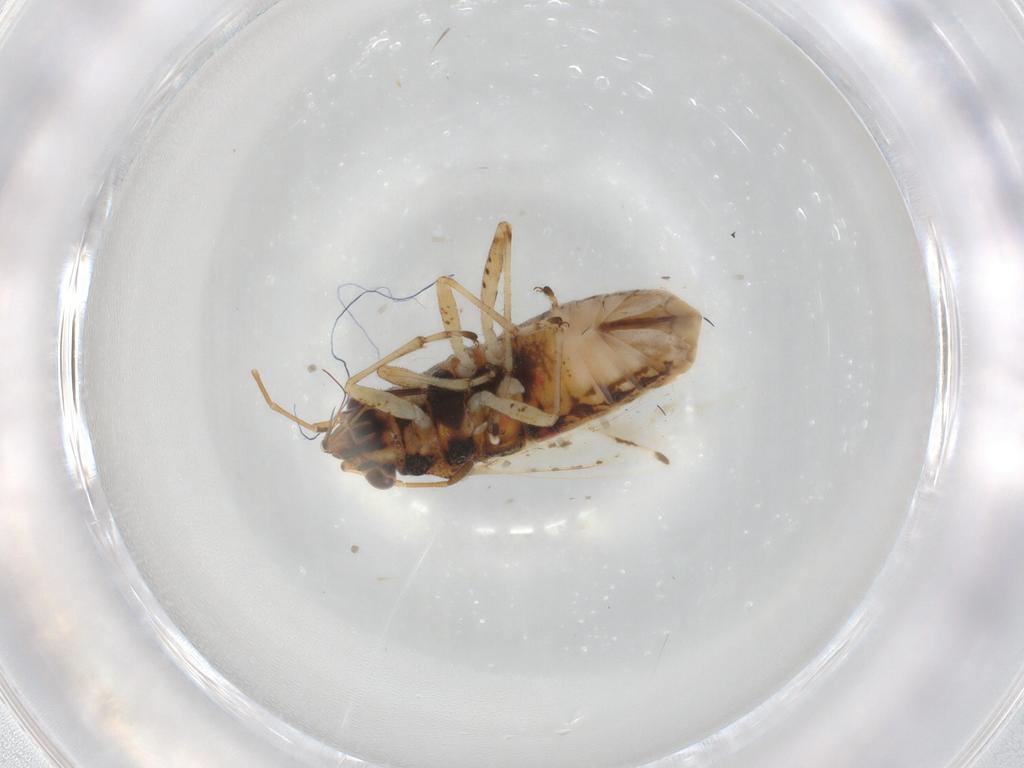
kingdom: Animalia
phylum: Arthropoda
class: Insecta
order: Hemiptera
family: Lygaeidae
